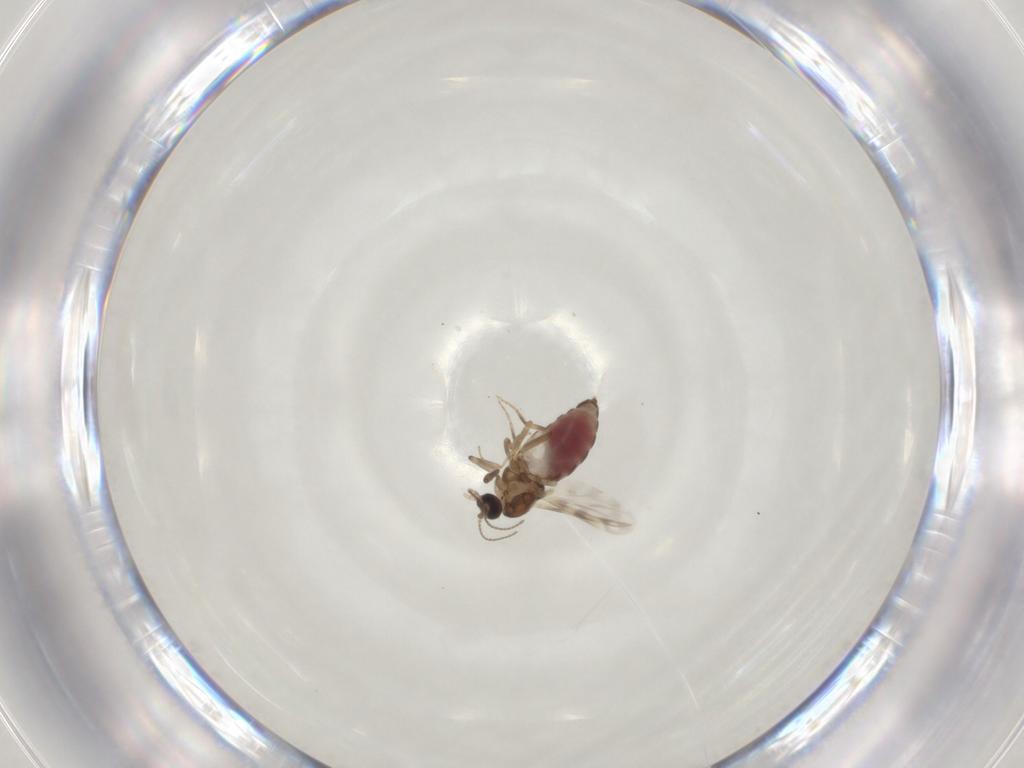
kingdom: Animalia
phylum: Arthropoda
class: Insecta
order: Diptera
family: Ceratopogonidae
